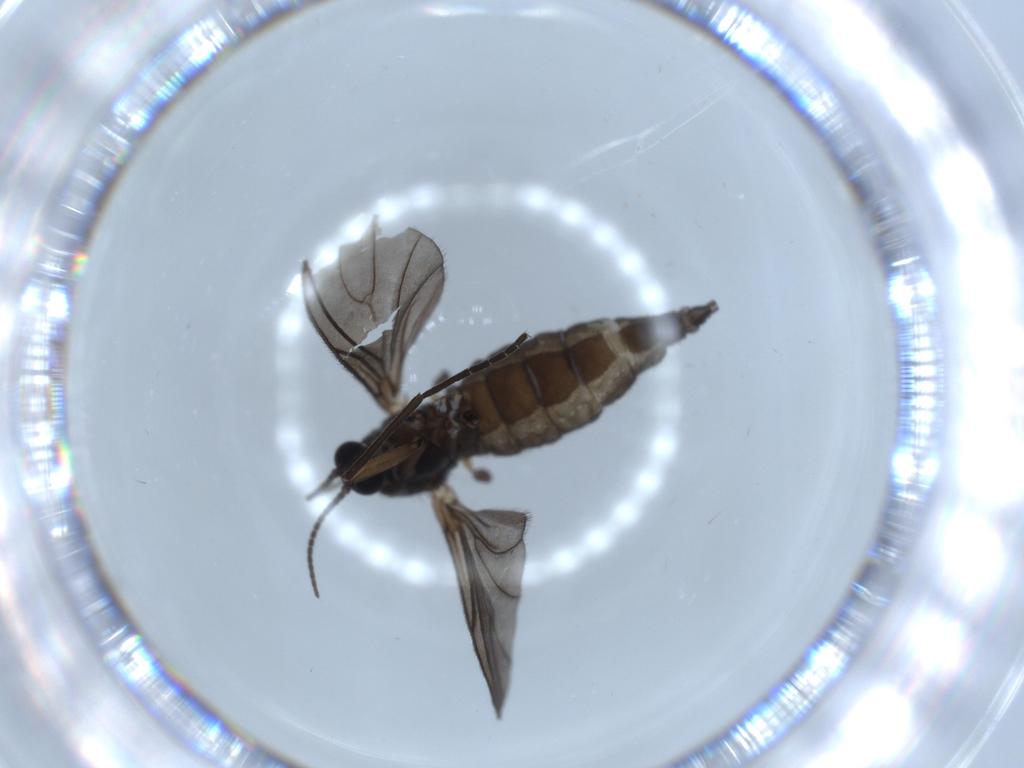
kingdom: Animalia
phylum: Arthropoda
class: Insecta
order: Diptera
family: Sciaridae
